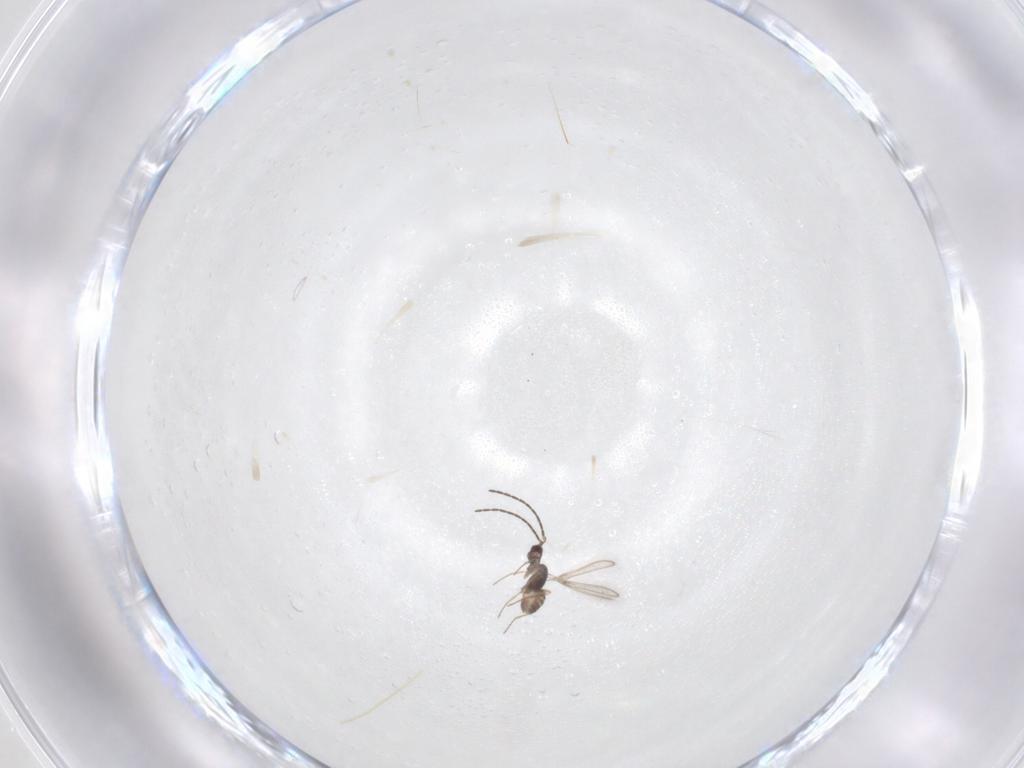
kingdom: Animalia
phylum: Arthropoda
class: Insecta
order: Hymenoptera
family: Mymaridae
